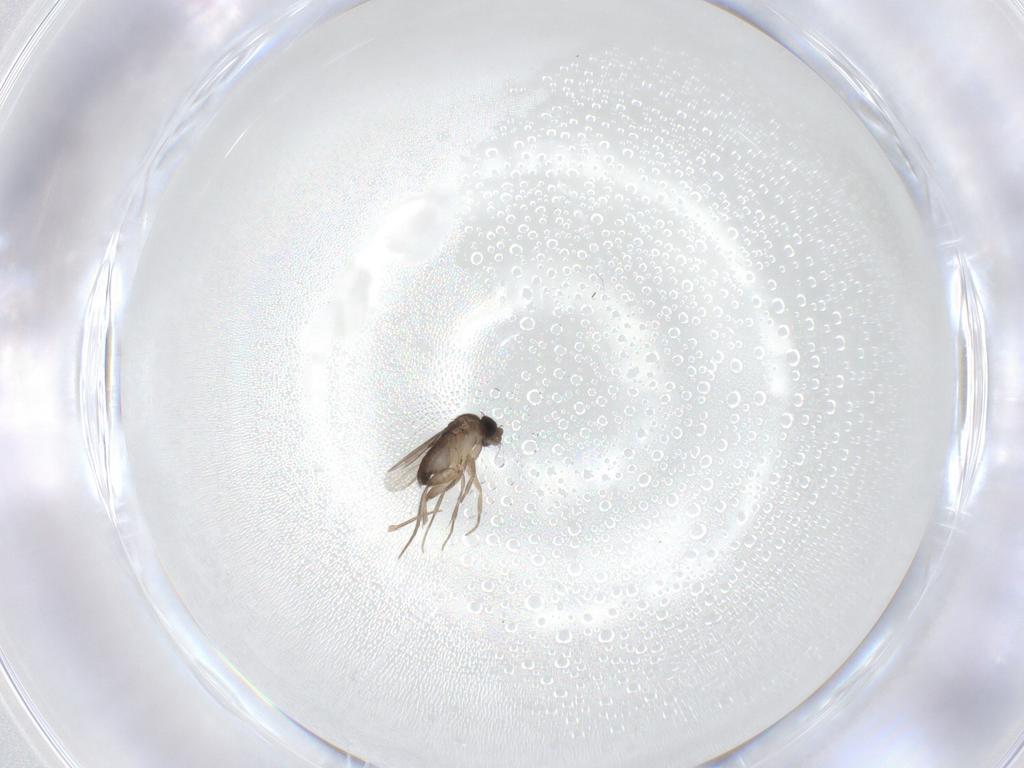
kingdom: Animalia
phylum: Arthropoda
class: Insecta
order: Diptera
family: Phoridae
